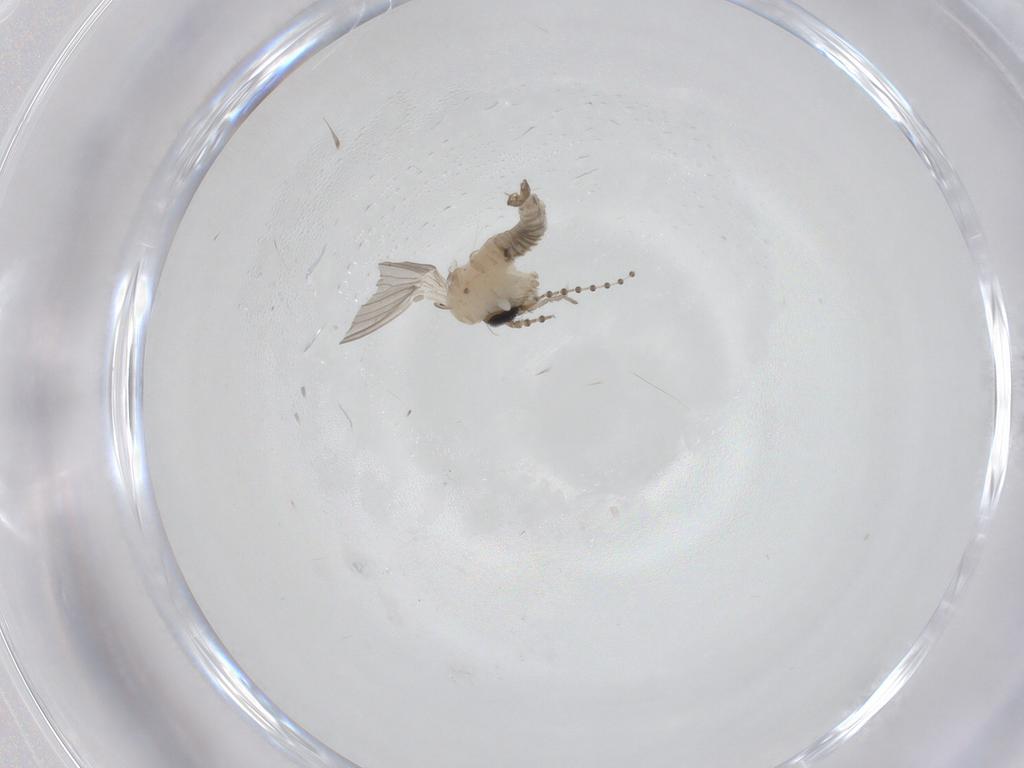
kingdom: Animalia
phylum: Arthropoda
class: Insecta
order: Diptera
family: Psychodidae
